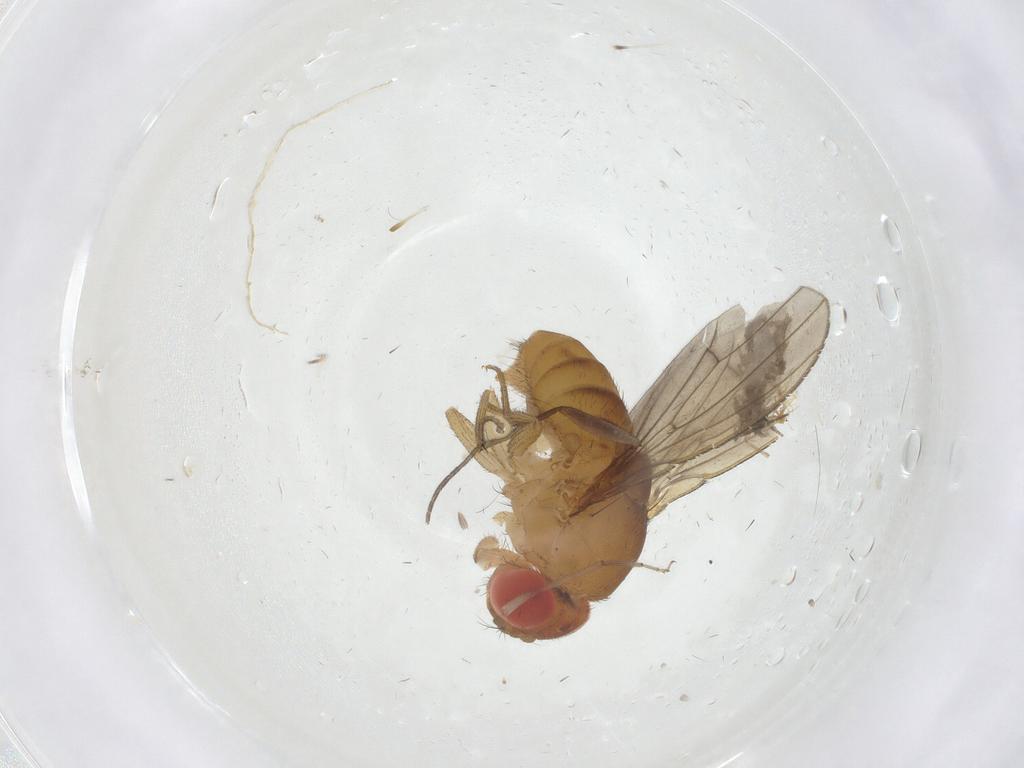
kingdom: Animalia
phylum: Arthropoda
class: Insecta
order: Diptera
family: Drosophilidae
